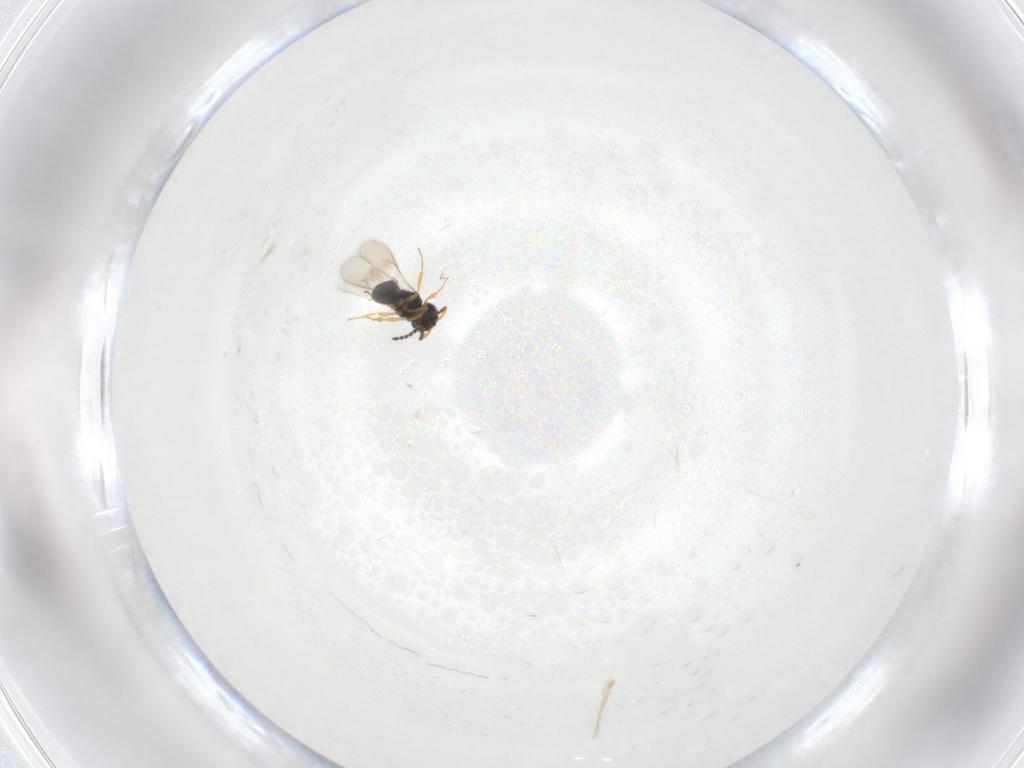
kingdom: Animalia
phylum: Arthropoda
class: Insecta
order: Hymenoptera
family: Scelionidae
